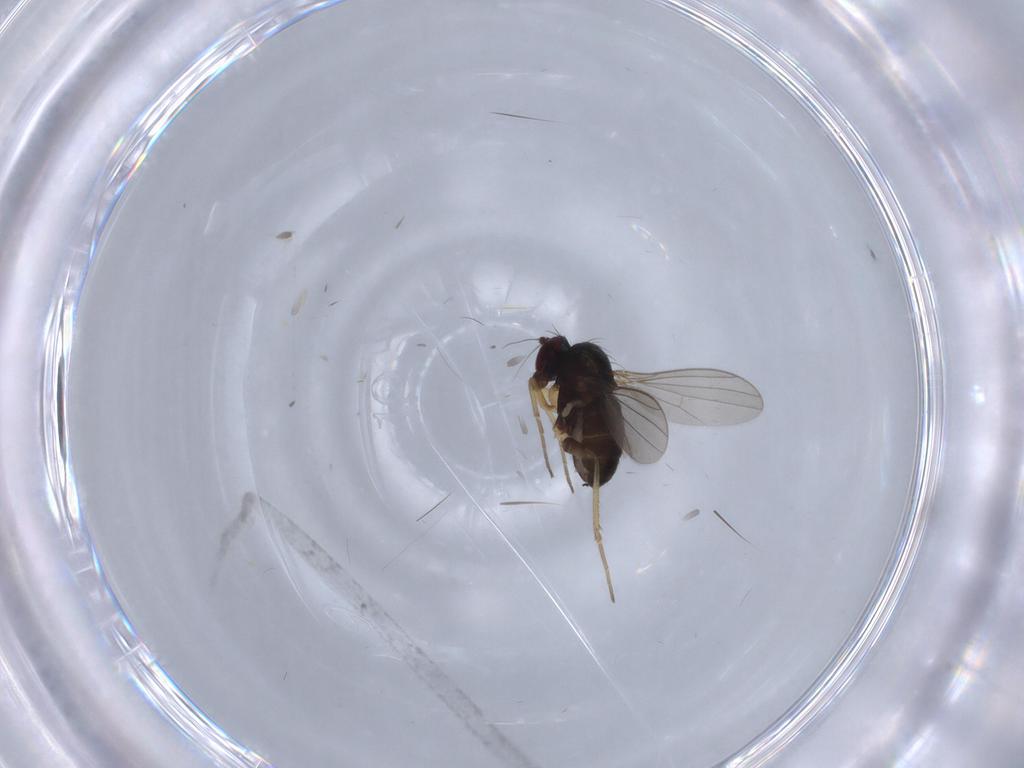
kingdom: Animalia
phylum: Arthropoda
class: Insecta
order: Diptera
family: Dolichopodidae
